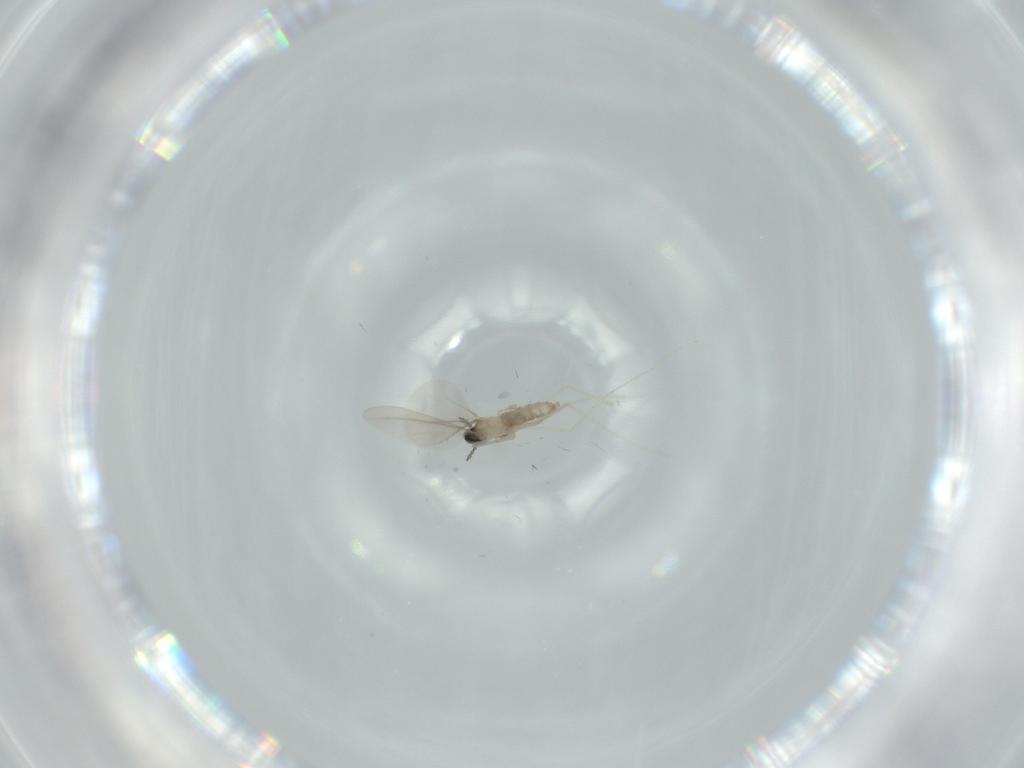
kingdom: Animalia
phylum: Arthropoda
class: Insecta
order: Diptera
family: Cecidomyiidae
